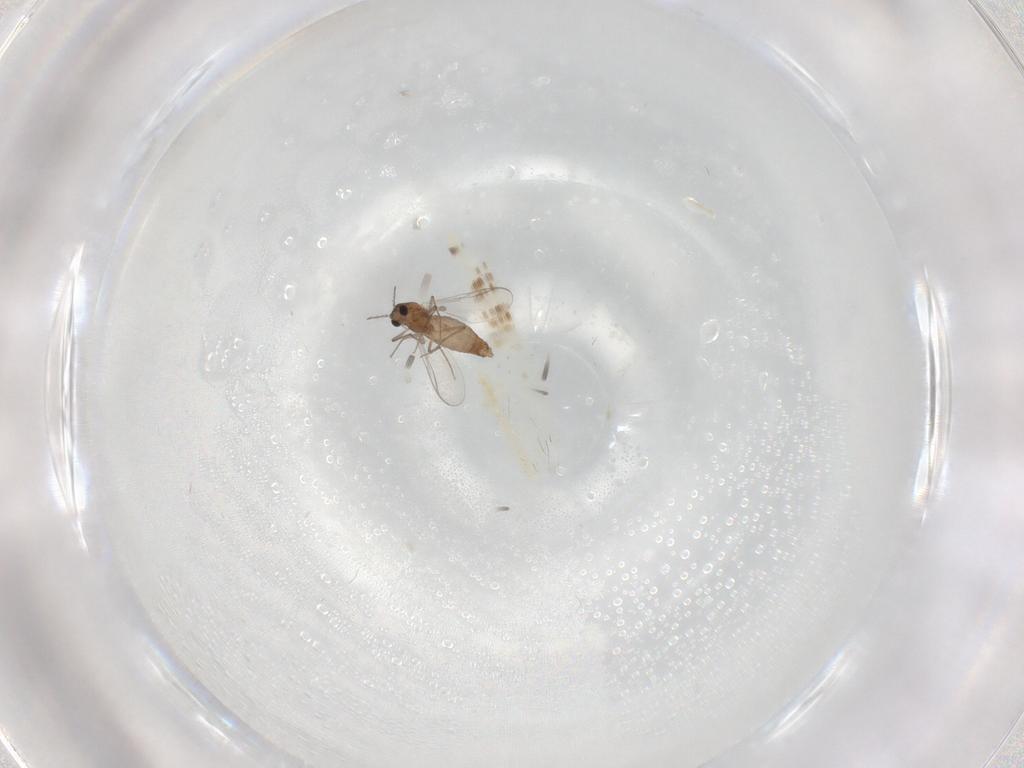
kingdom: Animalia
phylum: Arthropoda
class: Insecta
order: Diptera
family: Chironomidae
